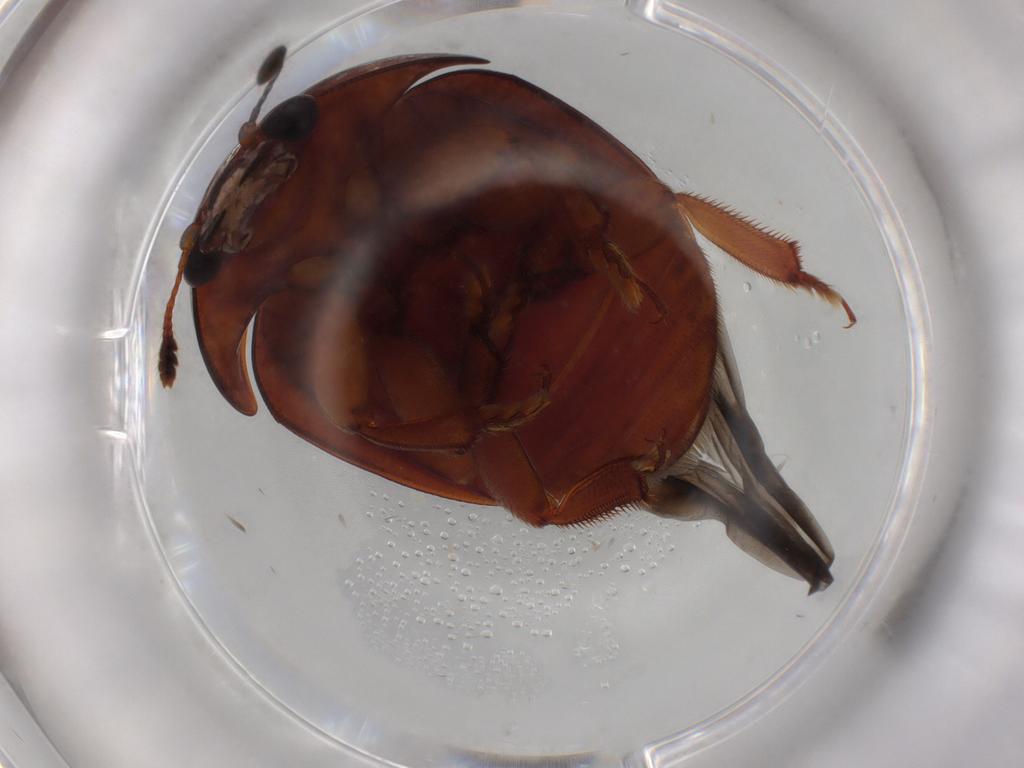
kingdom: Animalia
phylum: Arthropoda
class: Insecta
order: Coleoptera
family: Nitidulidae
